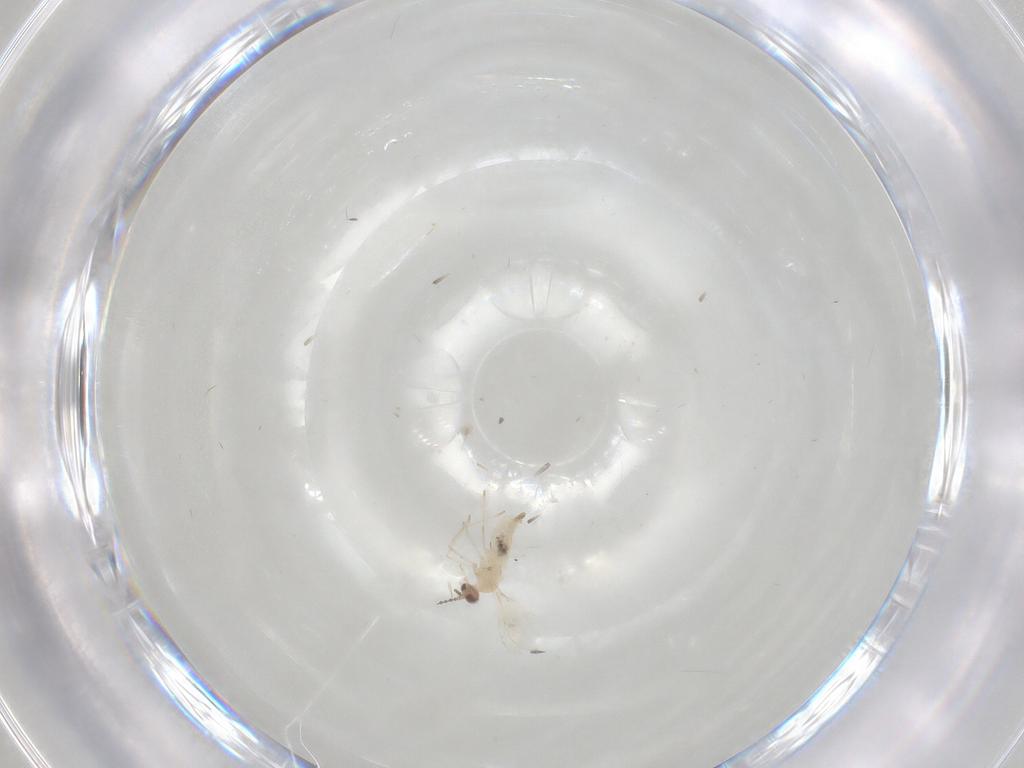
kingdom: Animalia
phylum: Arthropoda
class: Insecta
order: Diptera
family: Cecidomyiidae
